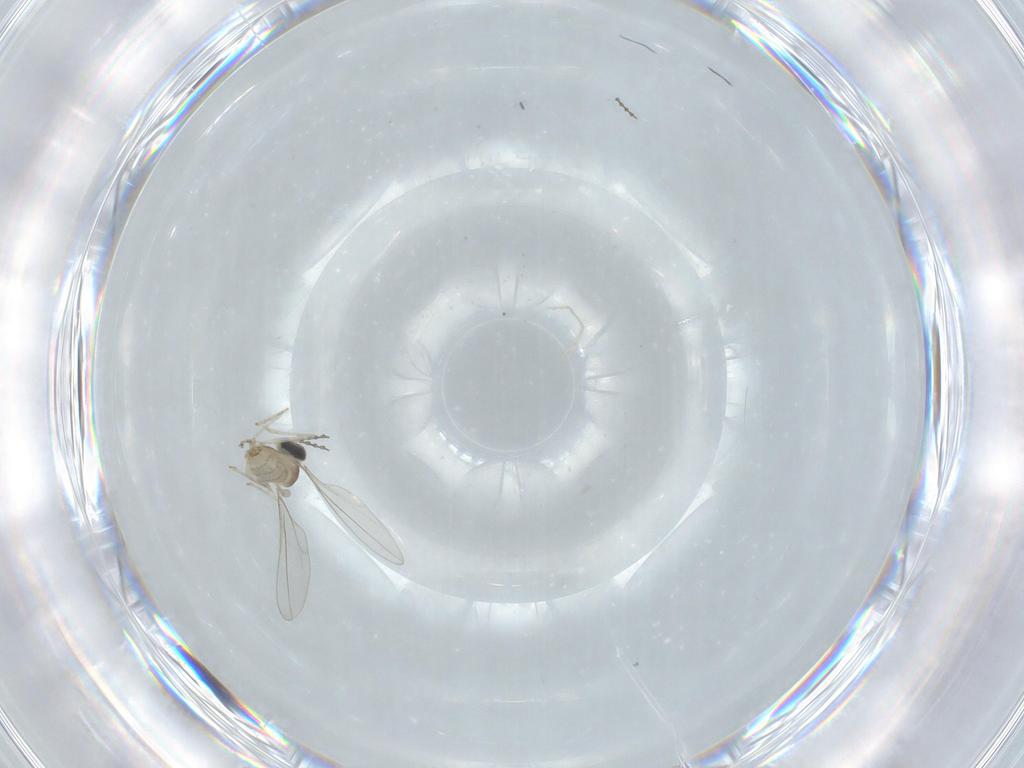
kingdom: Animalia
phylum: Arthropoda
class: Insecta
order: Diptera
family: Cecidomyiidae
